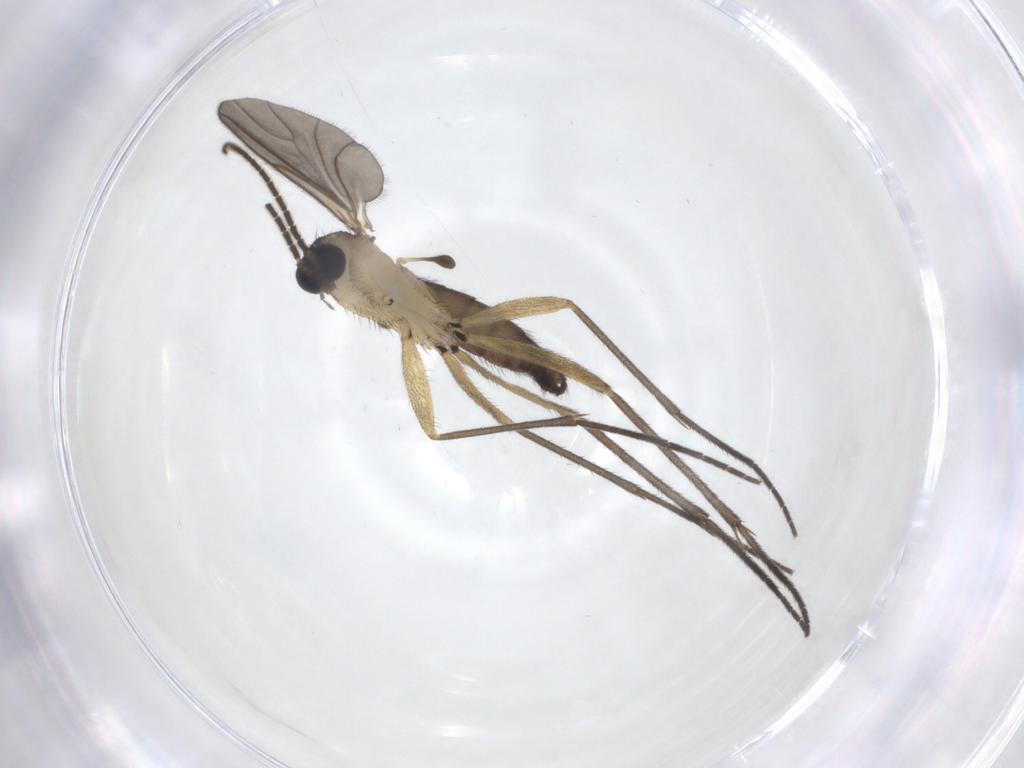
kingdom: Animalia
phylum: Arthropoda
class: Insecta
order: Diptera
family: Sciaridae
